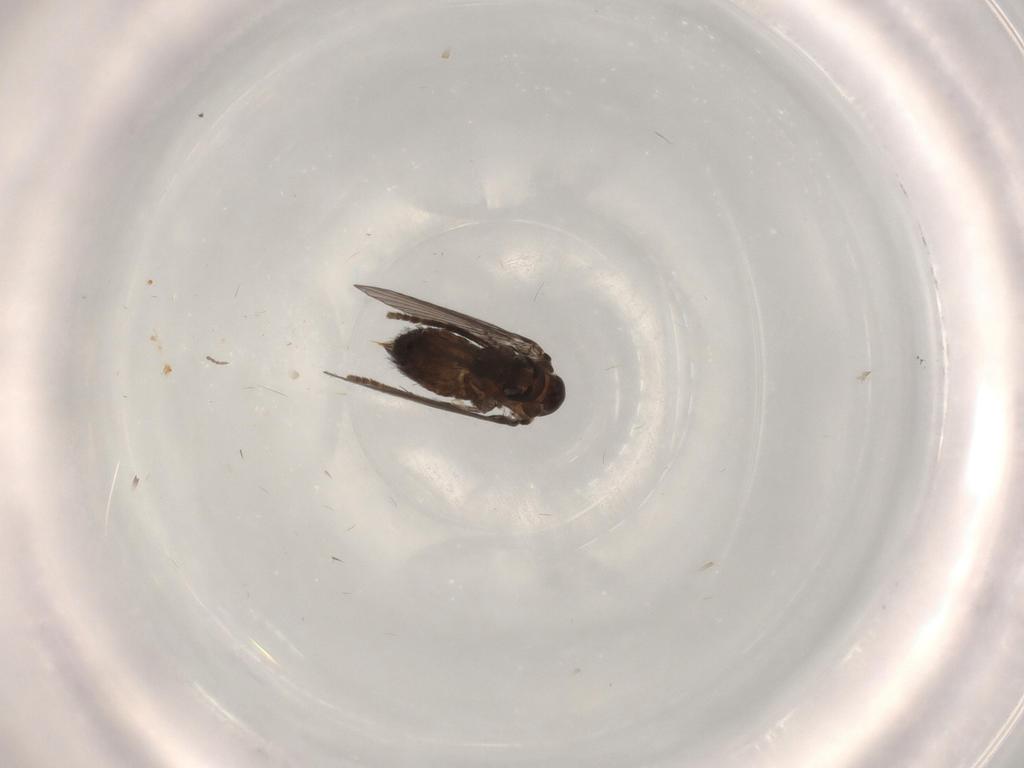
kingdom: Animalia
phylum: Arthropoda
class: Insecta
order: Diptera
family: Psychodidae
